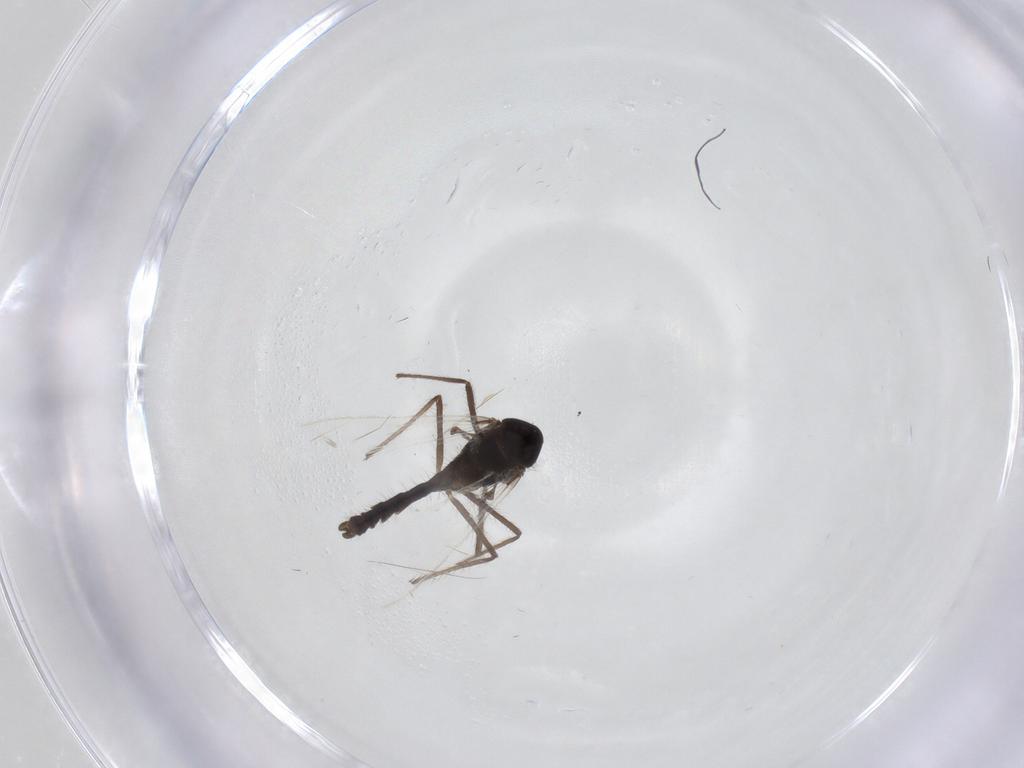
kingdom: Animalia
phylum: Arthropoda
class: Insecta
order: Diptera
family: Chironomidae
